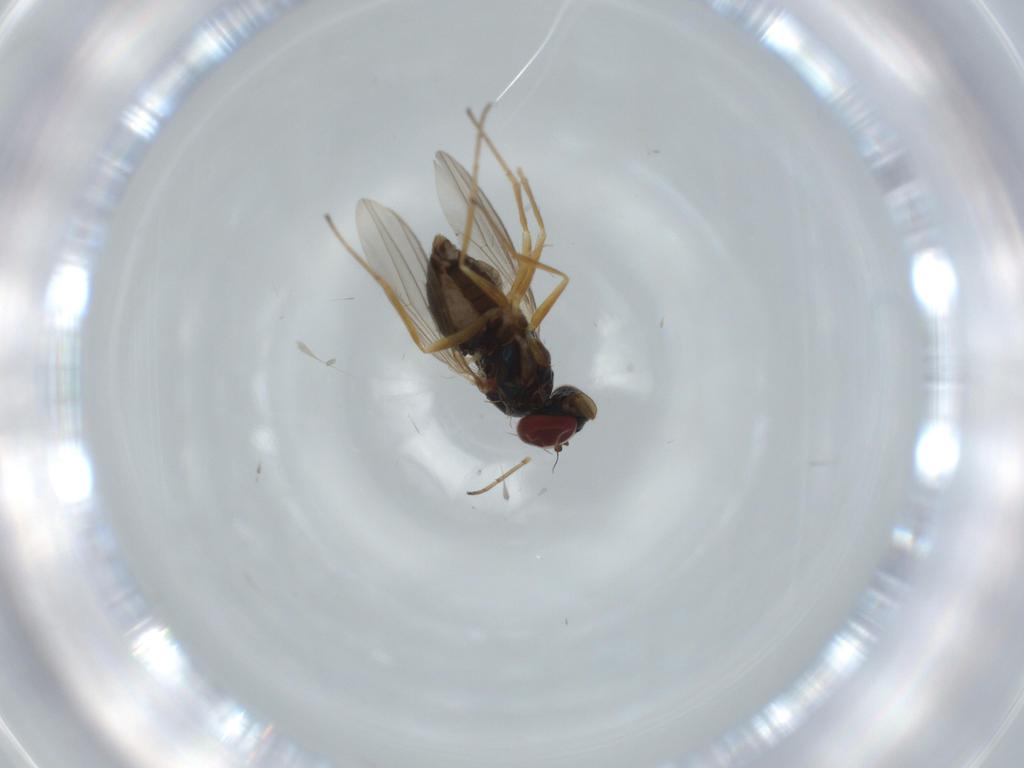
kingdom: Animalia
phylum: Arthropoda
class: Insecta
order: Diptera
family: Dolichopodidae
